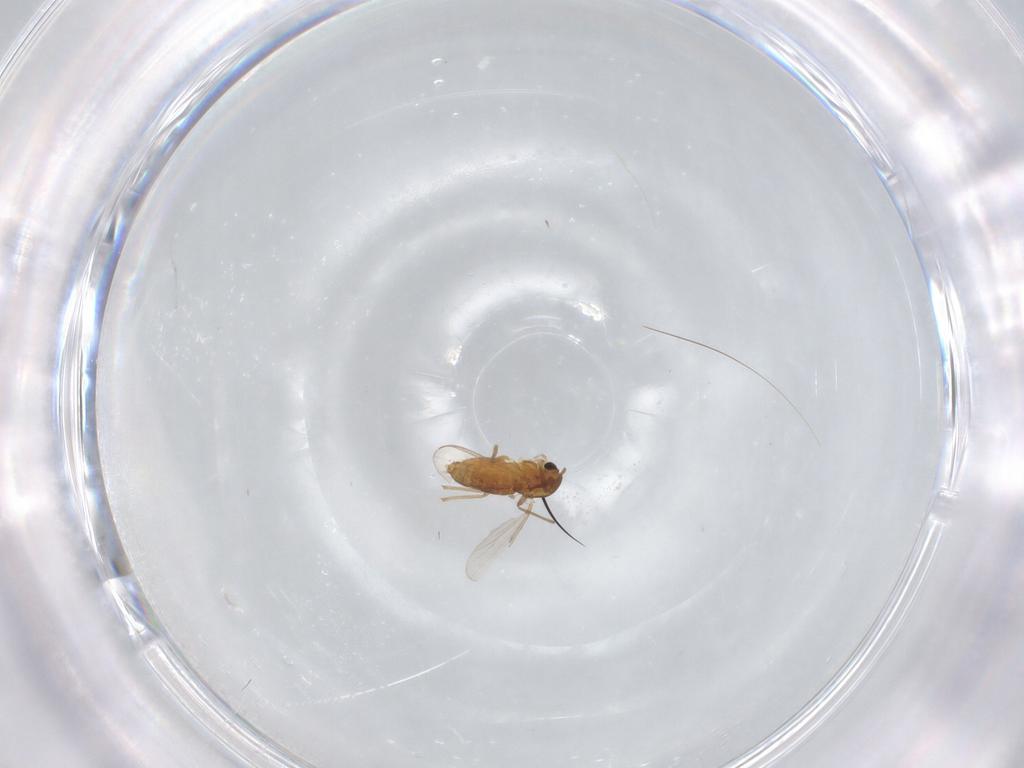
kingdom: Animalia
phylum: Arthropoda
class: Insecta
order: Diptera
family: Chironomidae
